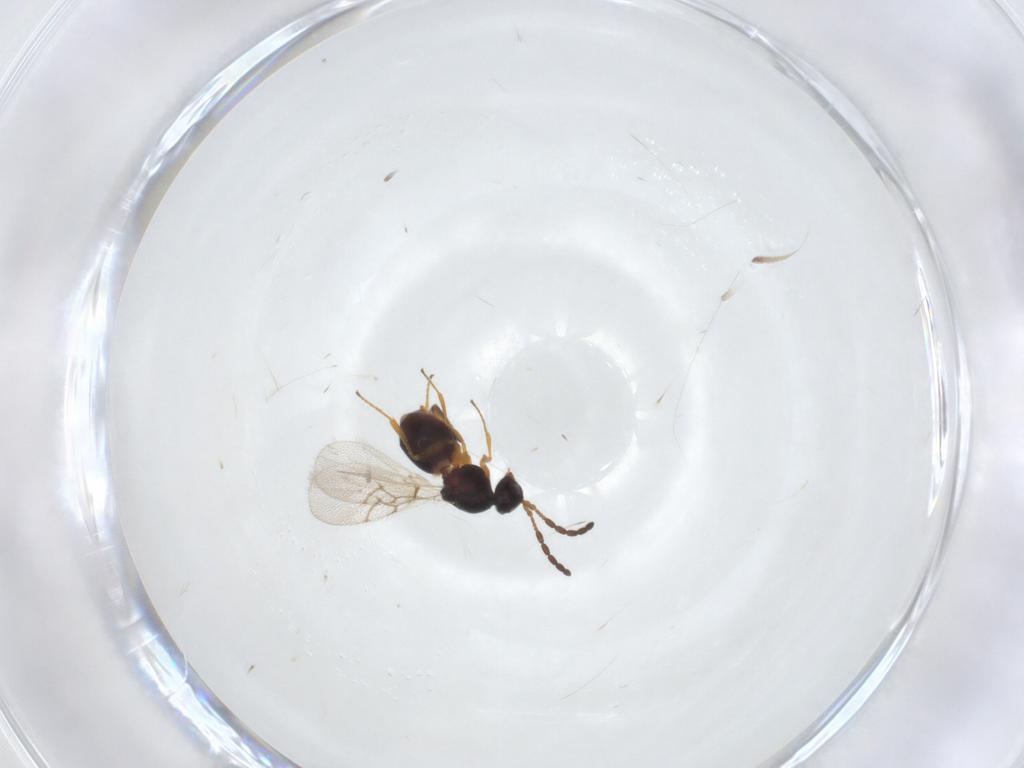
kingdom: Animalia
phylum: Arthropoda
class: Insecta
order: Hymenoptera
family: Figitidae
